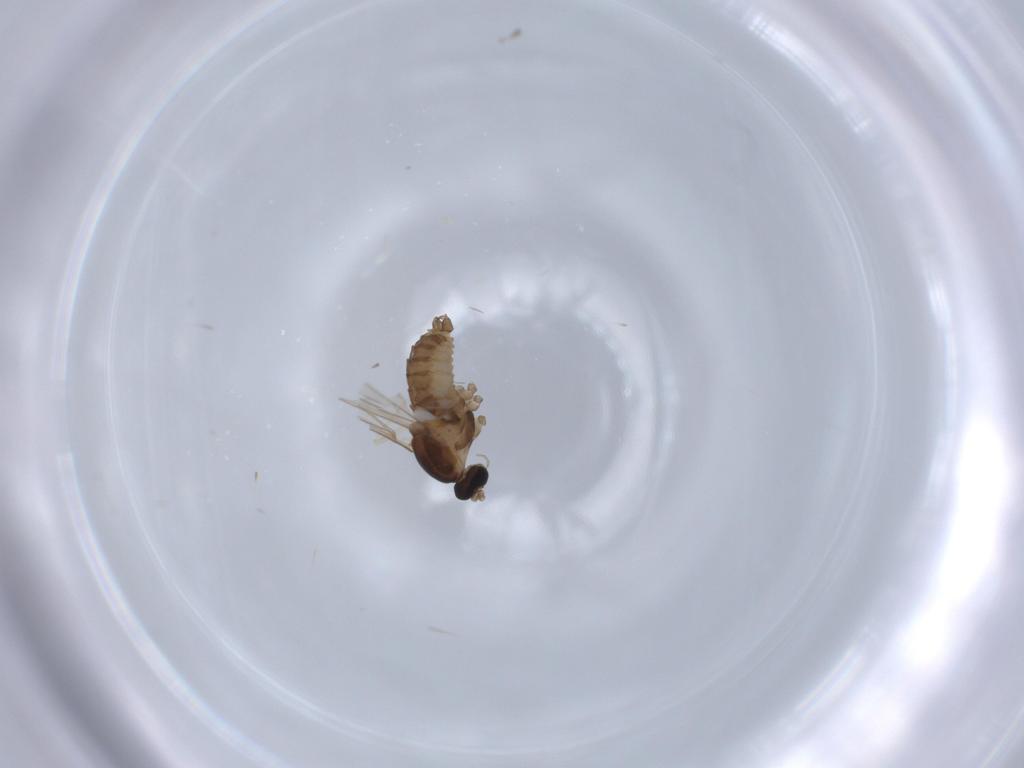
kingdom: Animalia
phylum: Arthropoda
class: Insecta
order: Diptera
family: Cecidomyiidae
